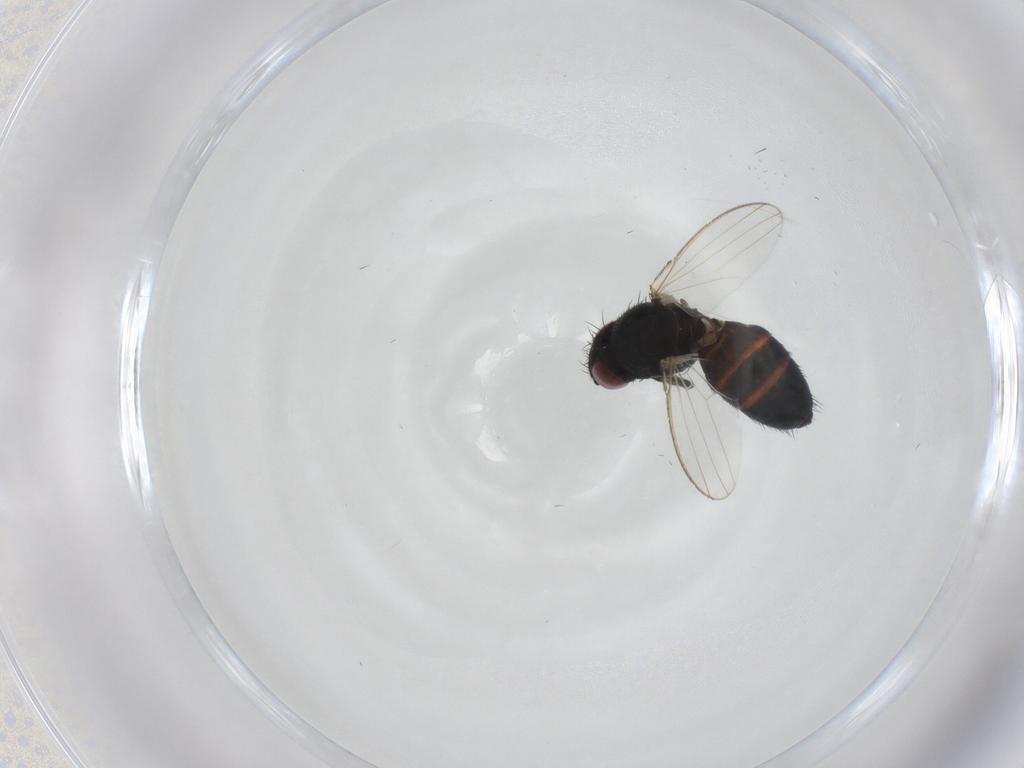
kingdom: Animalia
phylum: Arthropoda
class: Insecta
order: Diptera
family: Milichiidae
